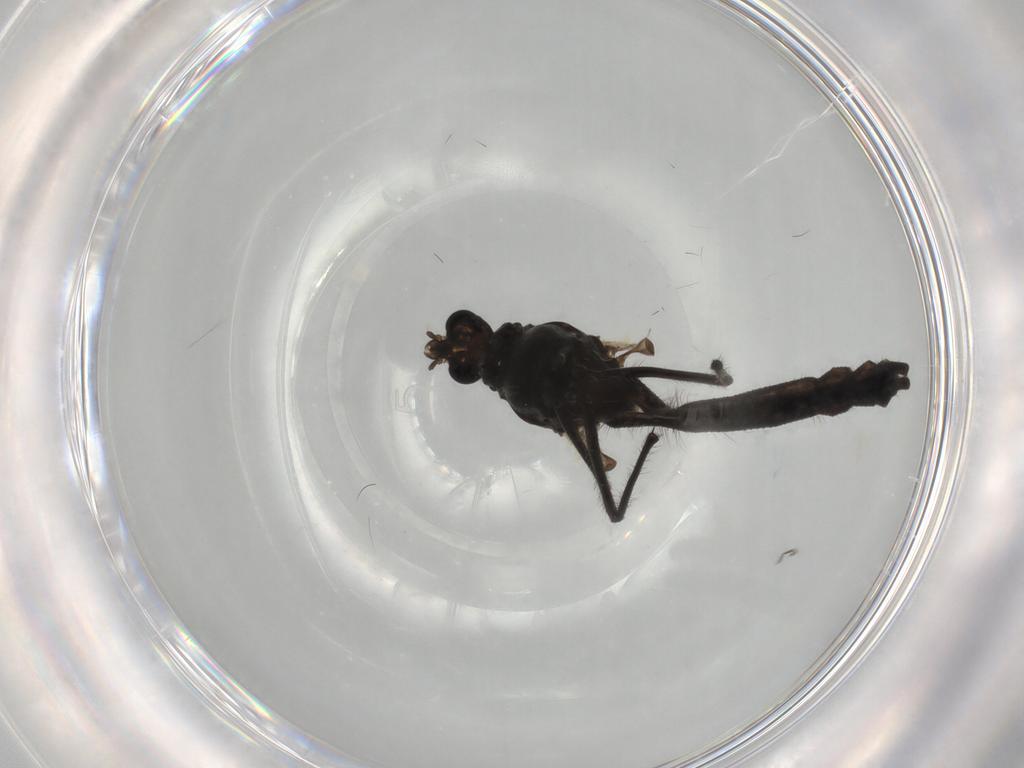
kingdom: Animalia
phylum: Arthropoda
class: Insecta
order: Diptera
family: Chironomidae
